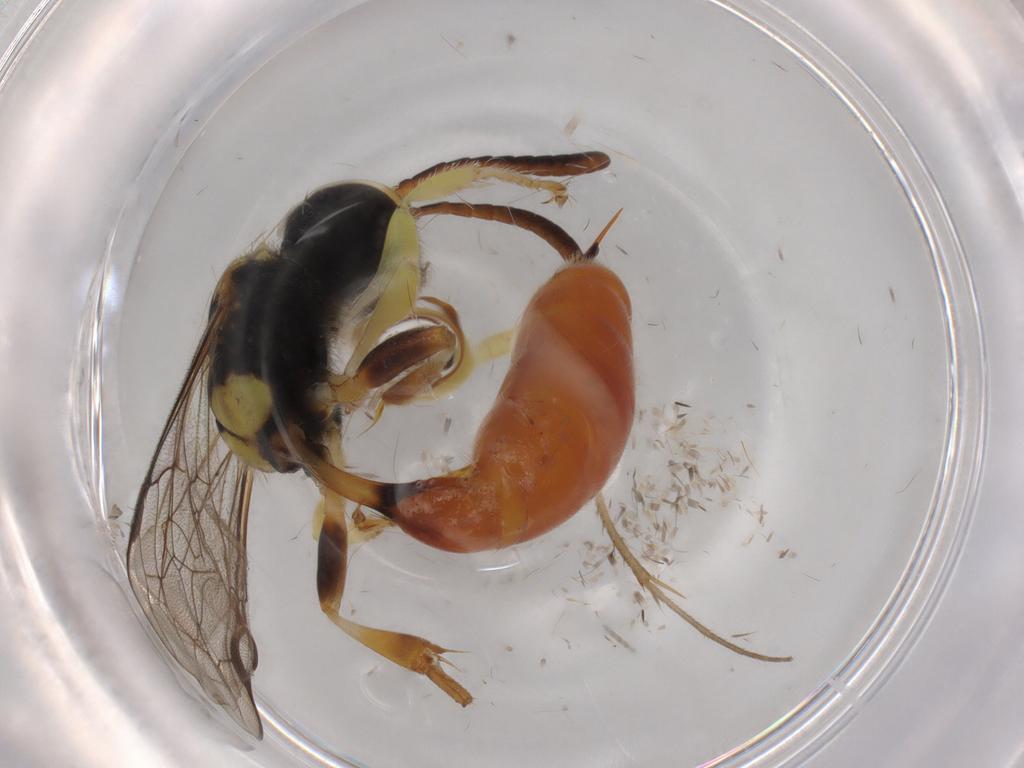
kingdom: Animalia
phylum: Arthropoda
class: Insecta
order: Hymenoptera
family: Crabronidae
